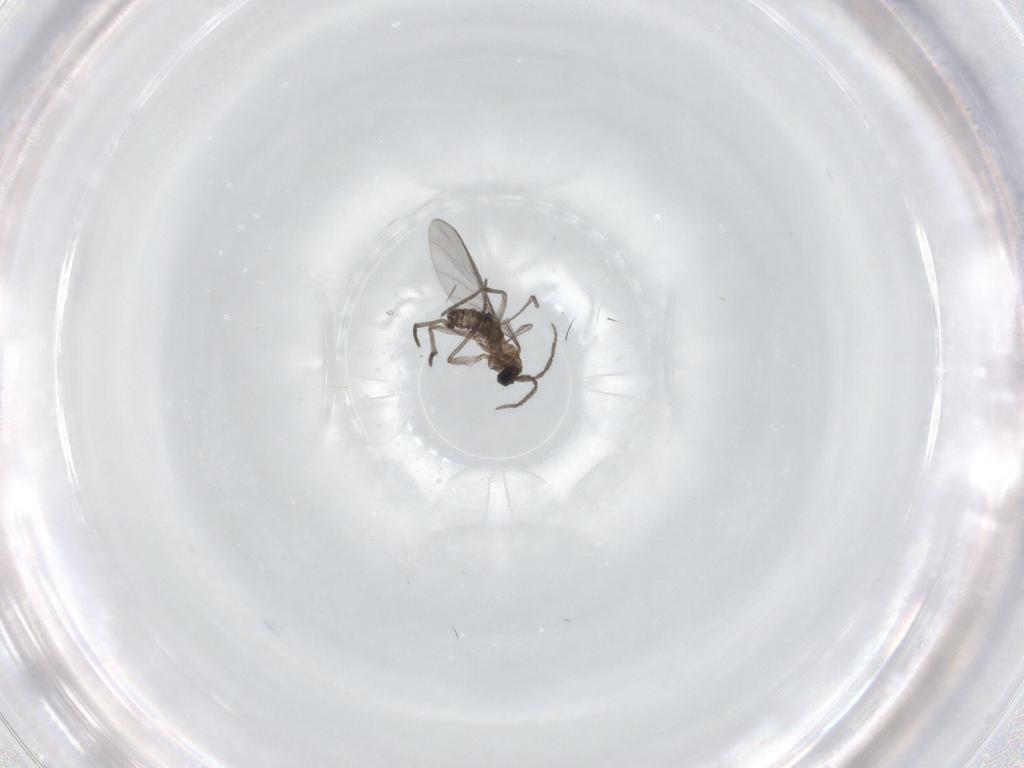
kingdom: Animalia
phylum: Arthropoda
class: Insecta
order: Diptera
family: Sciaridae
